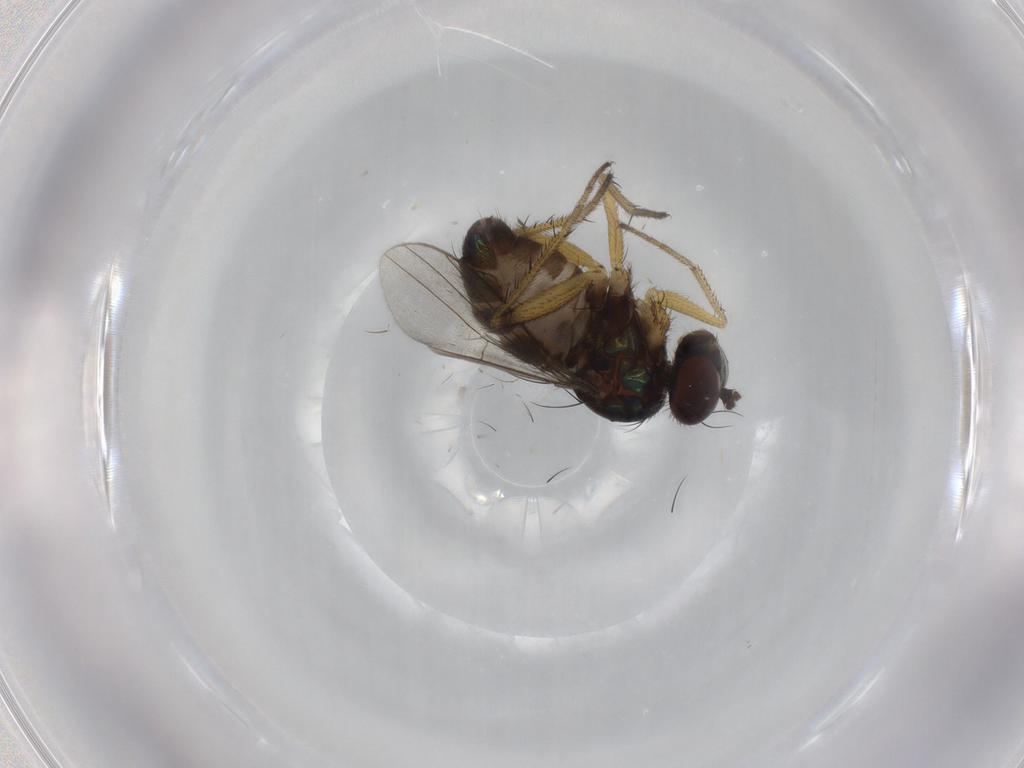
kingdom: Animalia
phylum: Arthropoda
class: Insecta
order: Diptera
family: Dolichopodidae
